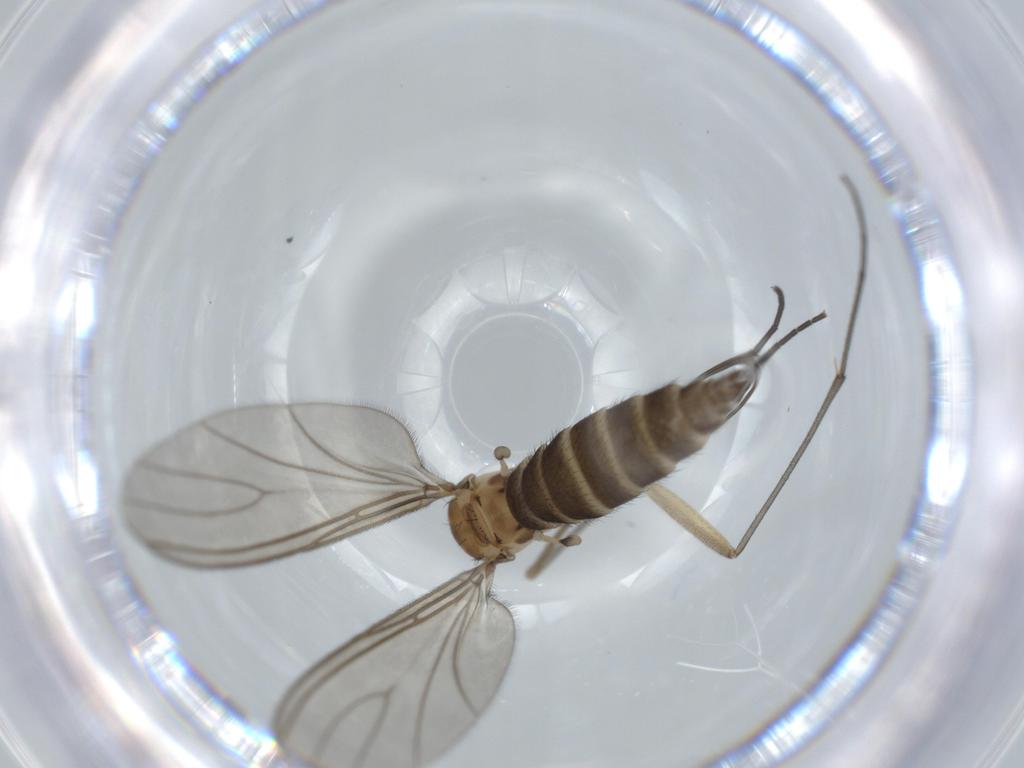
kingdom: Animalia
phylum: Arthropoda
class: Insecta
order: Diptera
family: Sciaridae
